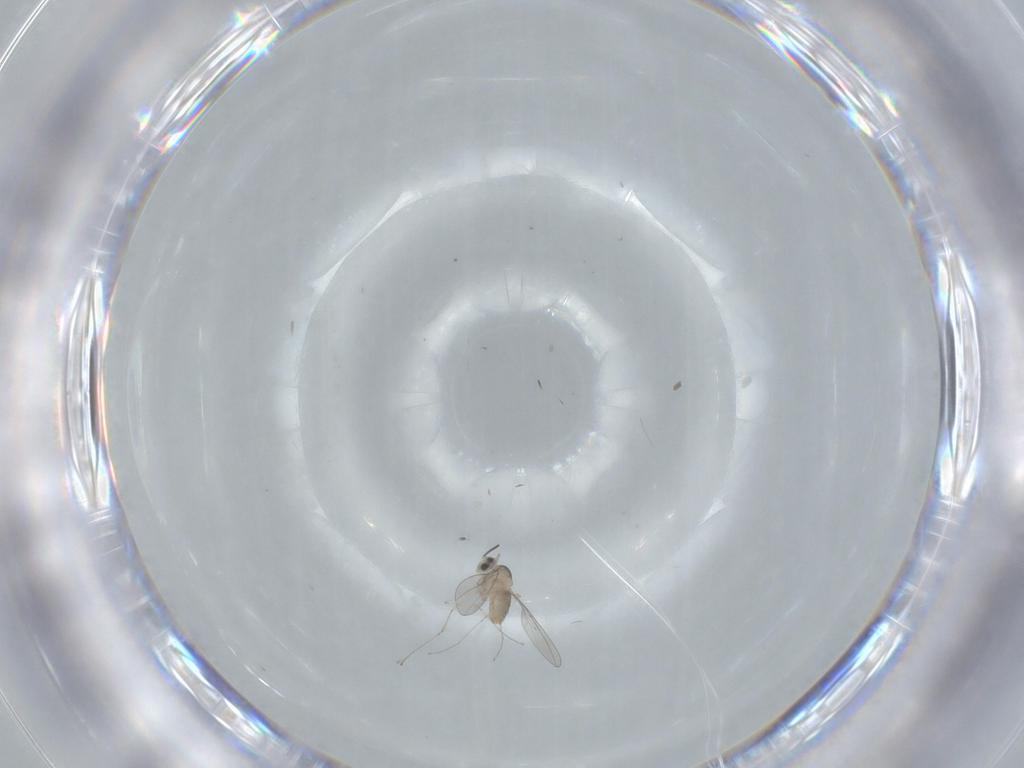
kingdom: Animalia
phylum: Arthropoda
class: Insecta
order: Diptera
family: Cecidomyiidae
